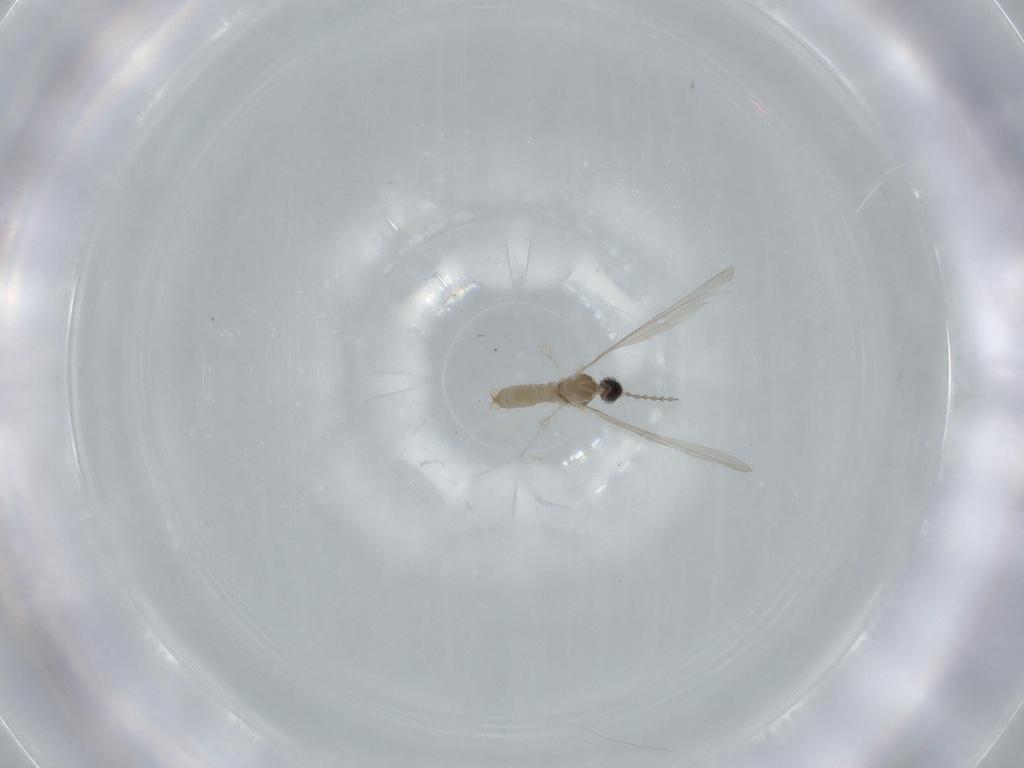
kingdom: Animalia
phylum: Arthropoda
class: Insecta
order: Diptera
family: Cecidomyiidae
